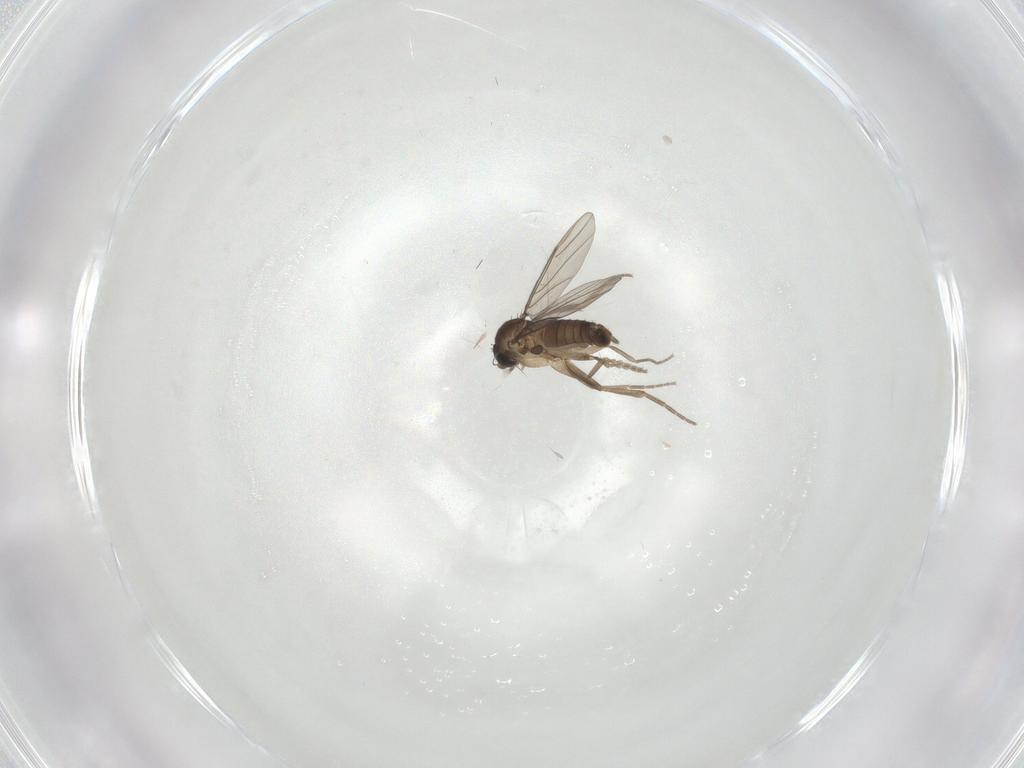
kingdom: Animalia
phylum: Arthropoda
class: Insecta
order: Diptera
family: Phoridae
